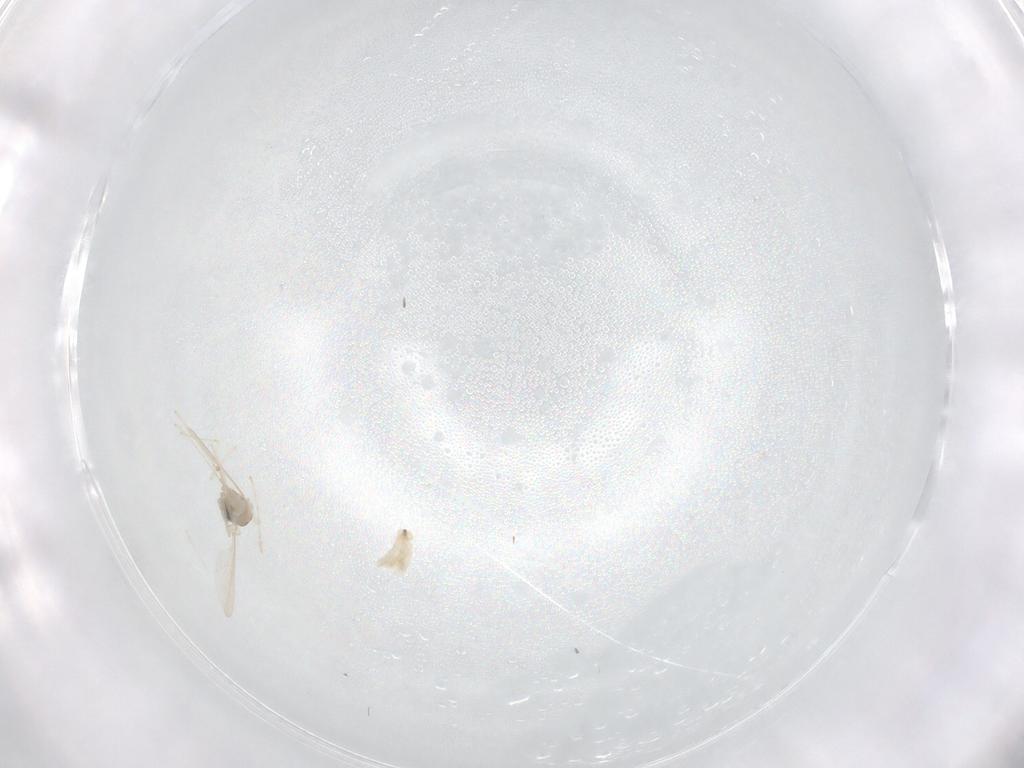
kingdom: Animalia
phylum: Arthropoda
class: Insecta
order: Diptera
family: Cecidomyiidae
